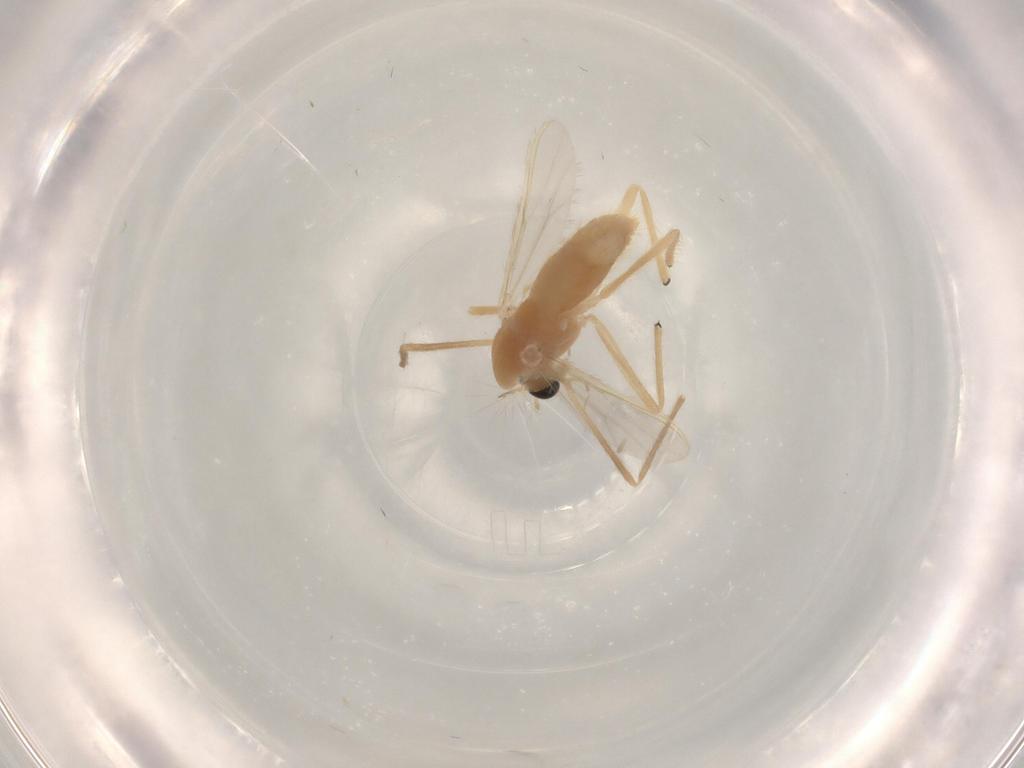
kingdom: Animalia
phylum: Arthropoda
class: Insecta
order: Diptera
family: Chironomidae
